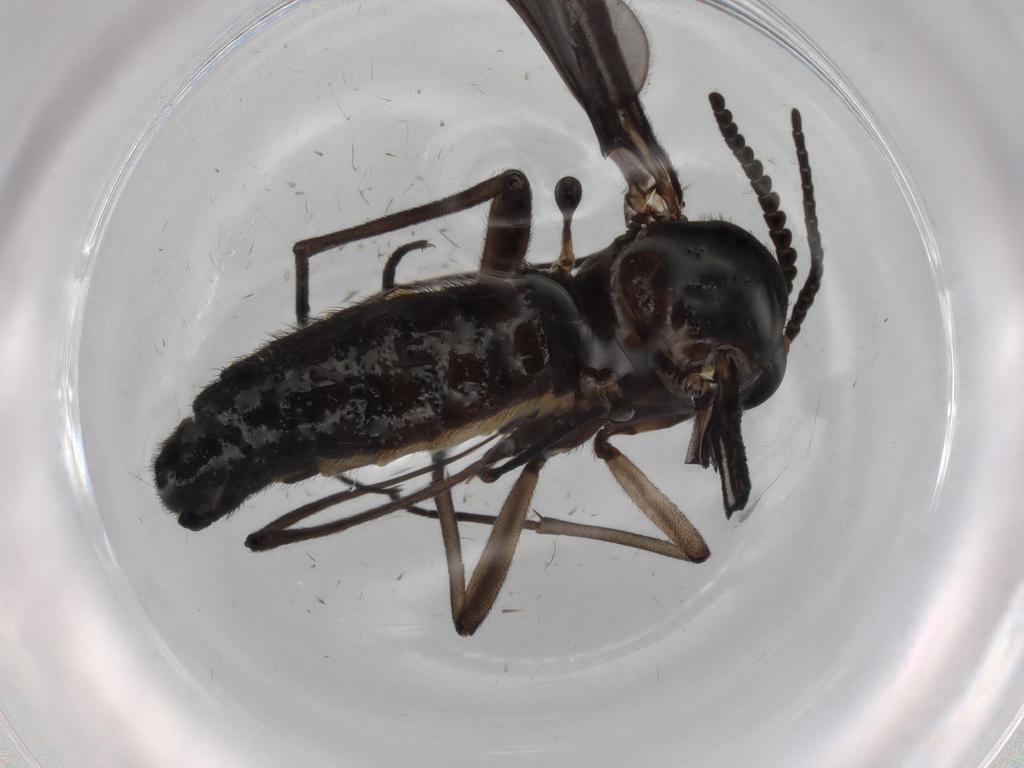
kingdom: Animalia
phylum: Arthropoda
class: Insecta
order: Diptera
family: Sciaridae
